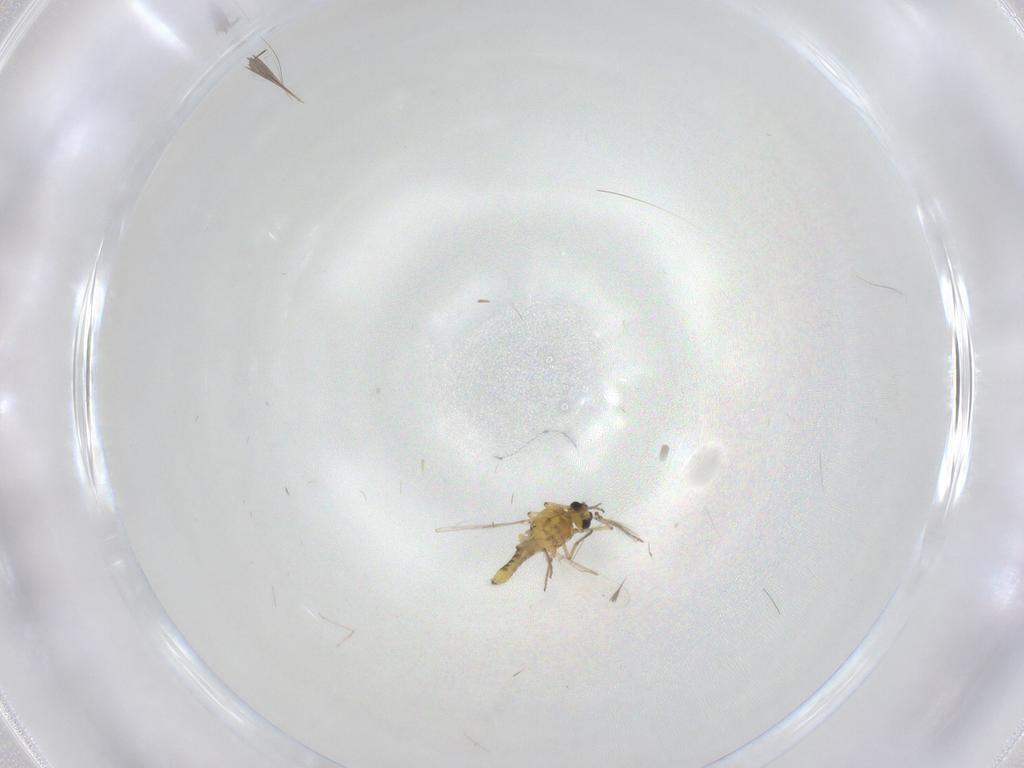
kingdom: Animalia
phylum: Arthropoda
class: Insecta
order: Diptera
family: Ceratopogonidae
